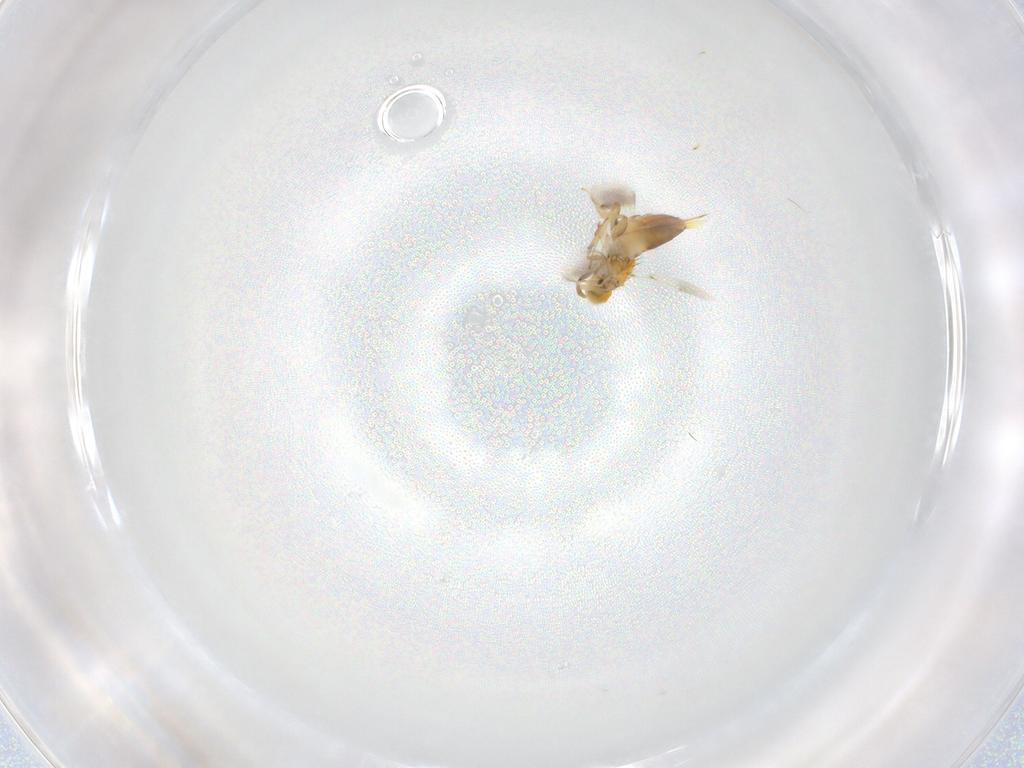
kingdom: Animalia
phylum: Arthropoda
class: Insecta
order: Hymenoptera
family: Aphelinidae
